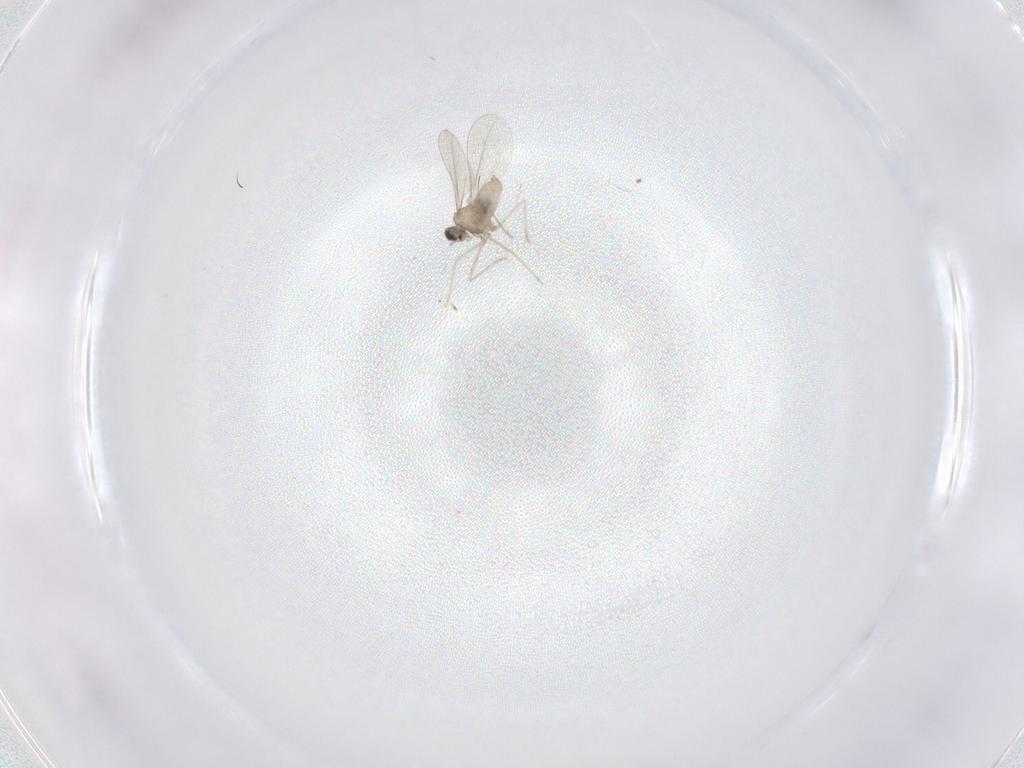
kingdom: Animalia
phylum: Arthropoda
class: Insecta
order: Diptera
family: Cecidomyiidae
